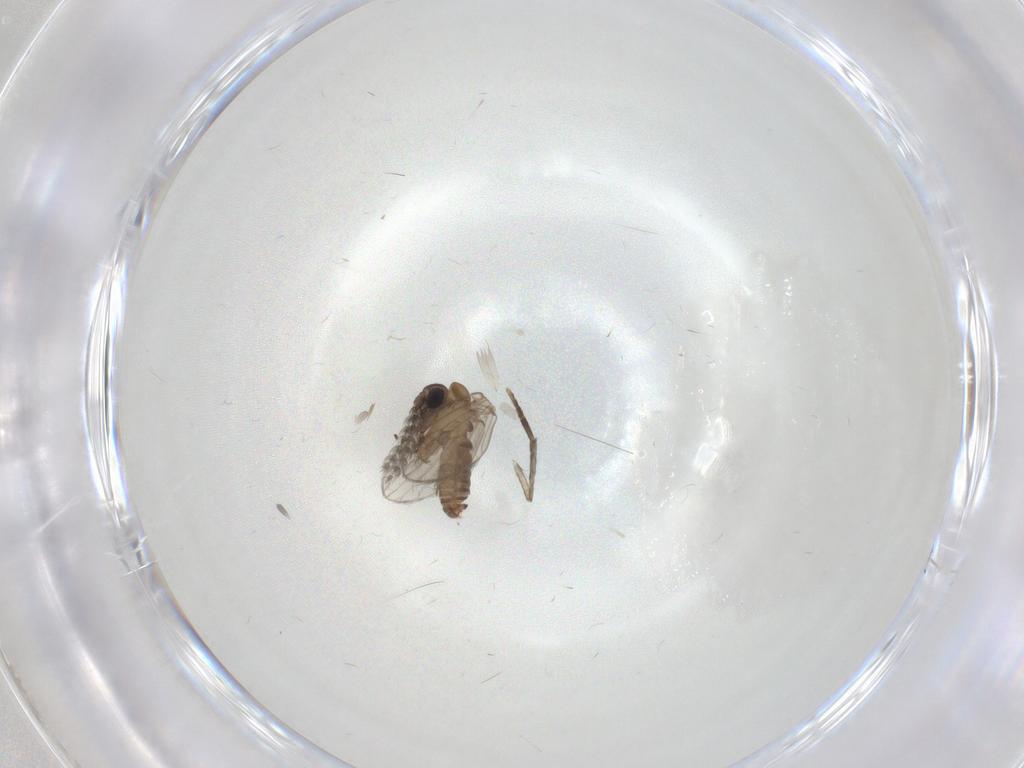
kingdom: Animalia
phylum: Arthropoda
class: Insecta
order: Diptera
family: Psychodidae
